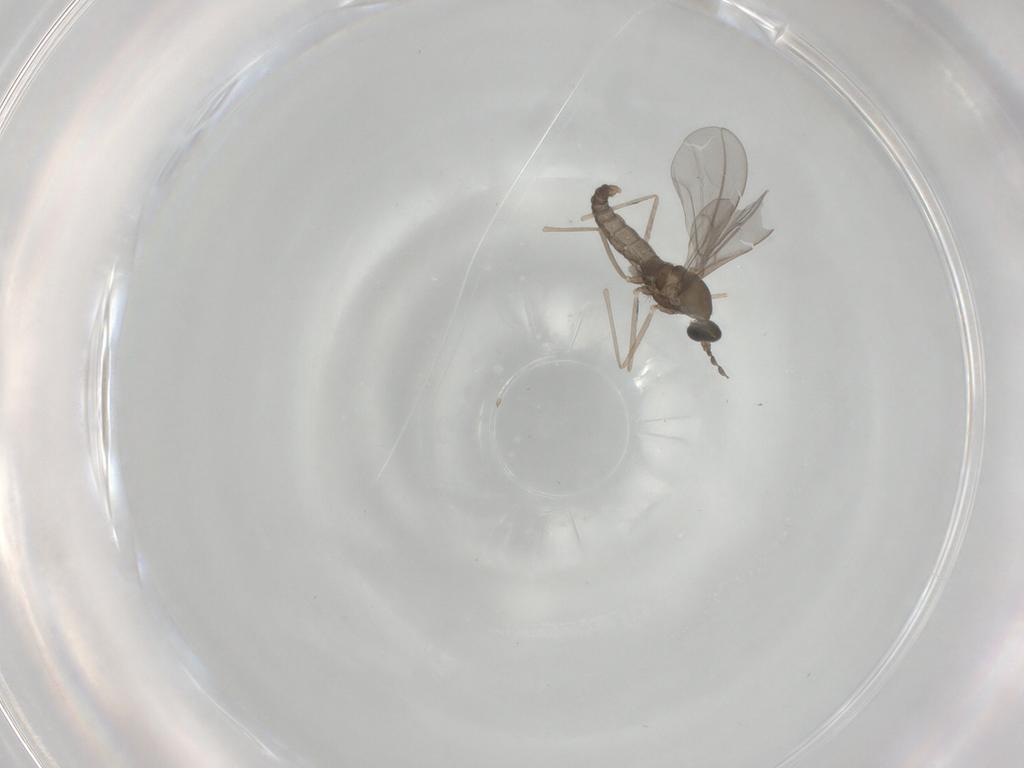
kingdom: Animalia
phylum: Arthropoda
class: Insecta
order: Diptera
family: Cecidomyiidae
